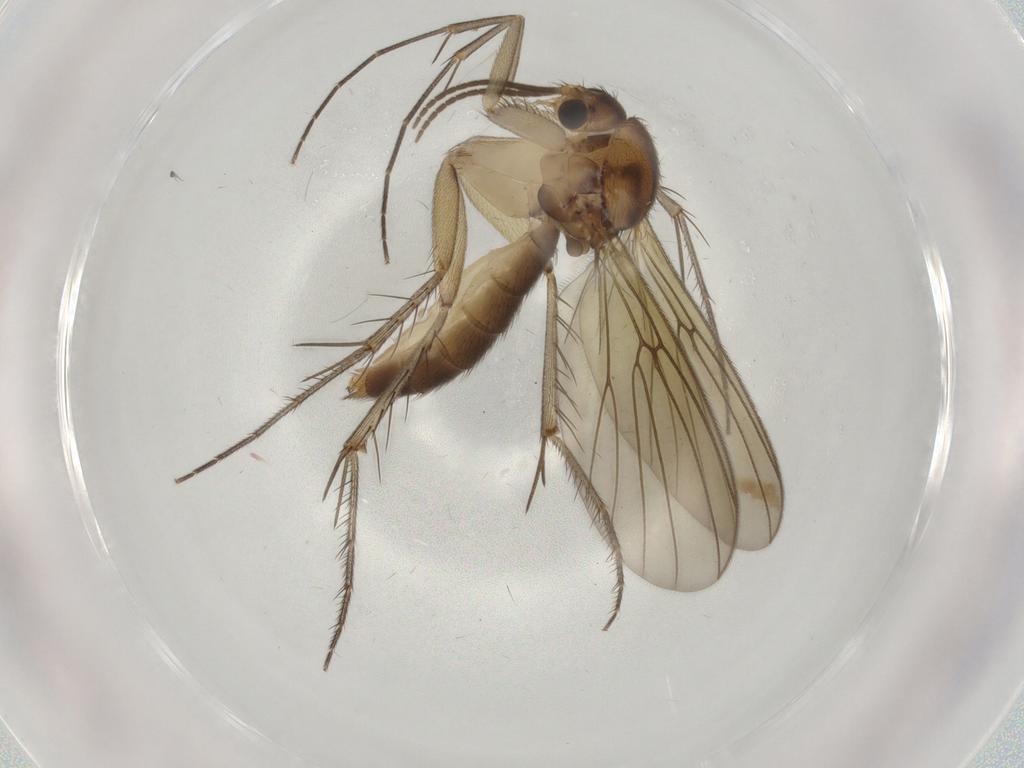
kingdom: Animalia
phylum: Arthropoda
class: Insecta
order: Diptera
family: Mycetophilidae
